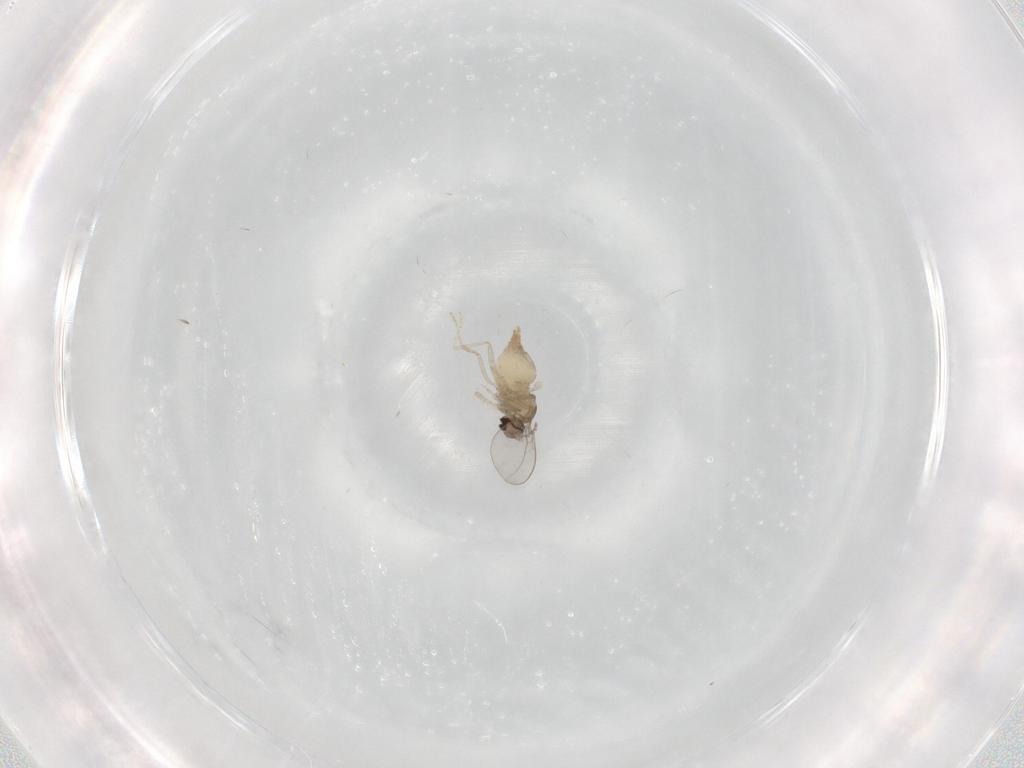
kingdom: Animalia
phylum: Arthropoda
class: Insecta
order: Diptera
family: Cecidomyiidae
